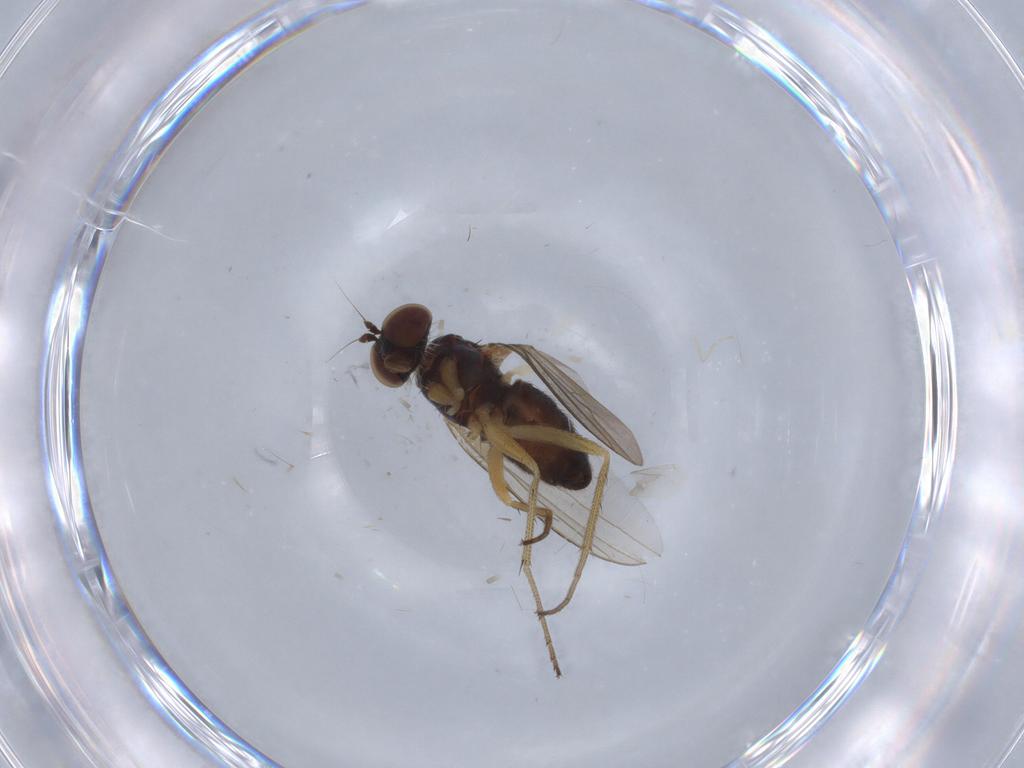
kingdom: Animalia
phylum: Arthropoda
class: Insecta
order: Diptera
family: Dolichopodidae
